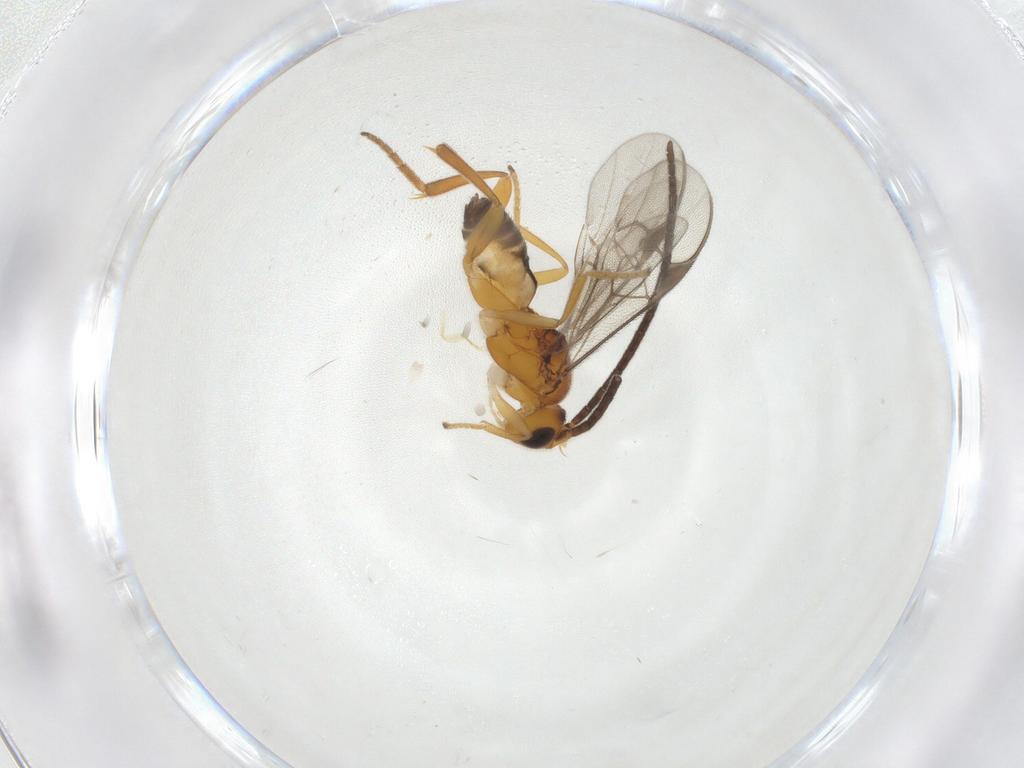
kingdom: Animalia
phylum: Arthropoda
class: Insecta
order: Hymenoptera
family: Braconidae
